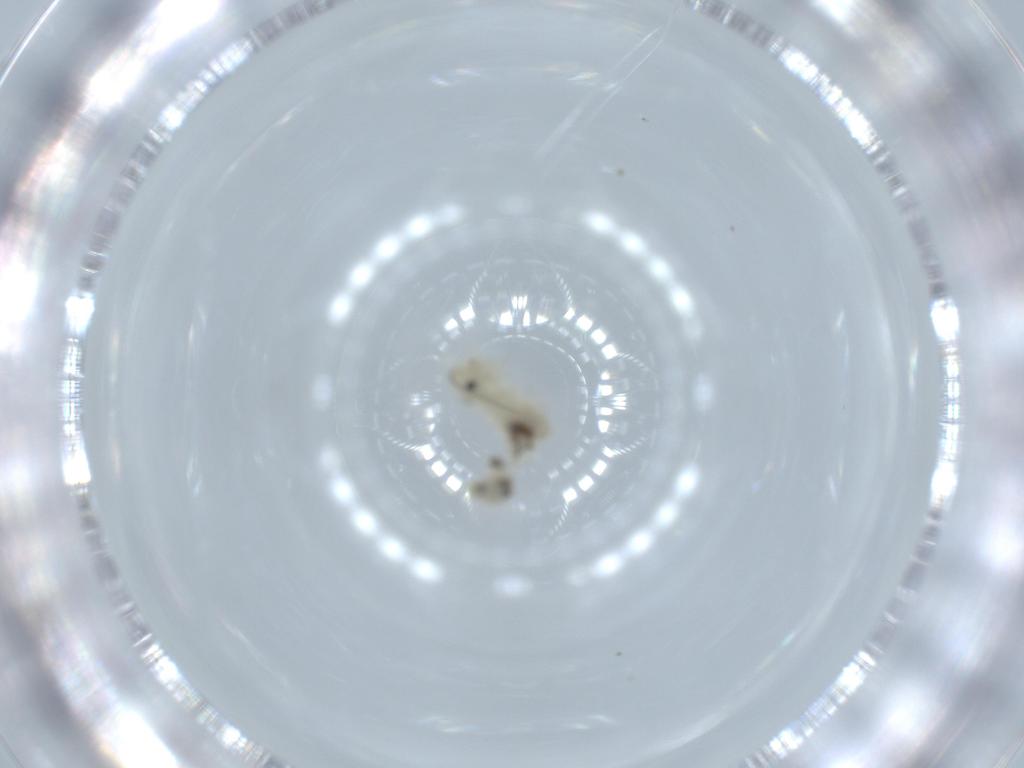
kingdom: Animalia
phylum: Arthropoda
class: Insecta
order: Psocodea
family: Caeciliusidae
